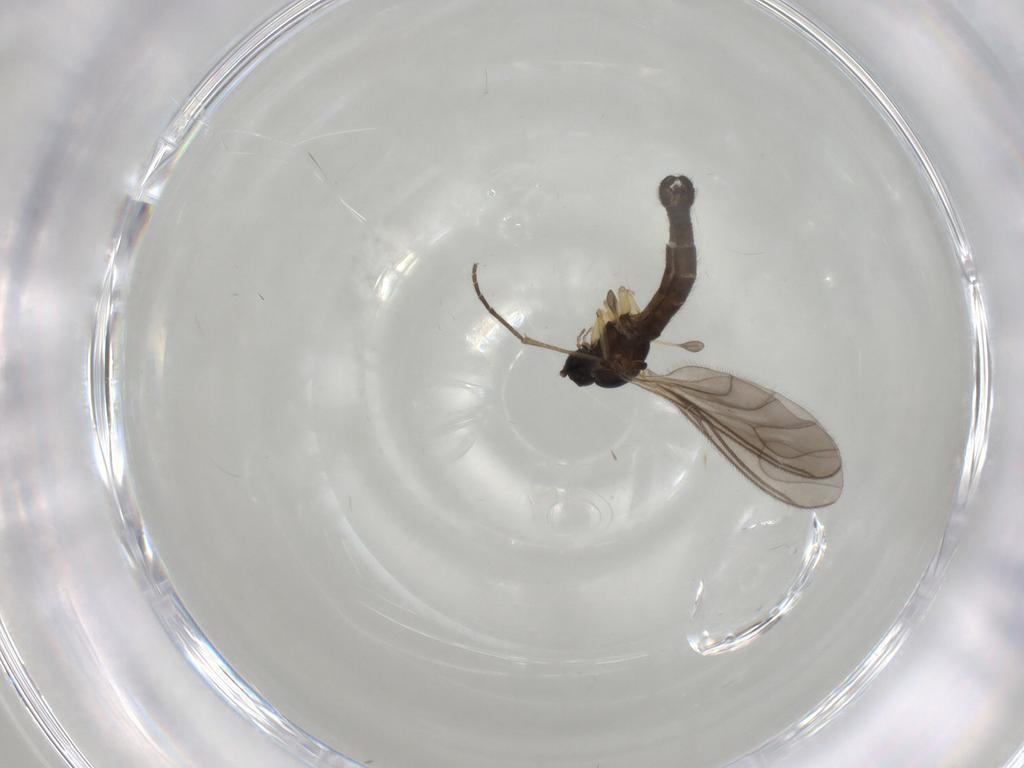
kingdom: Animalia
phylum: Arthropoda
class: Insecta
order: Diptera
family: Sciaridae
